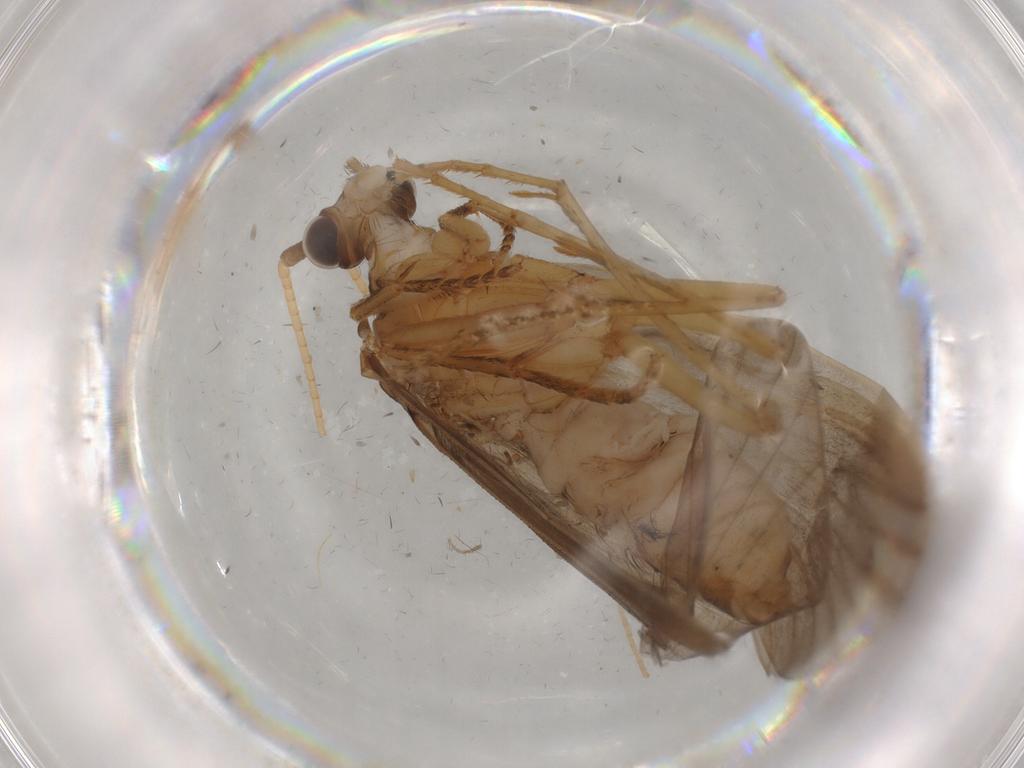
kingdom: Animalia
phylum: Arthropoda
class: Insecta
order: Trichoptera
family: Lepidostomatidae
